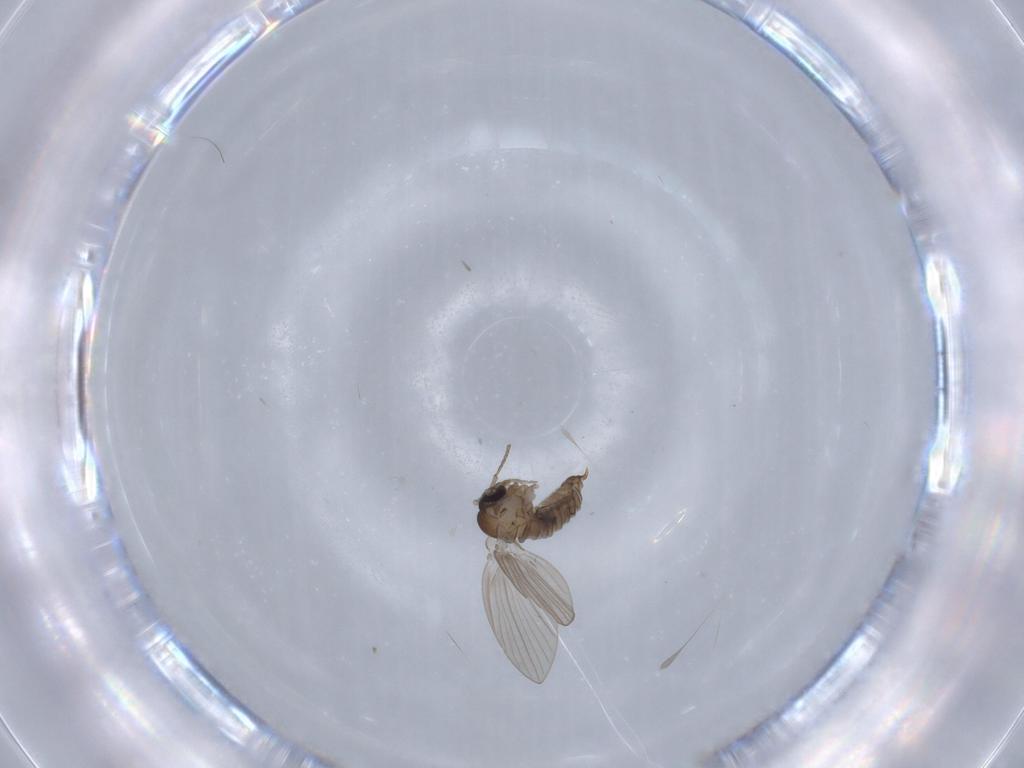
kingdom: Animalia
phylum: Arthropoda
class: Insecta
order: Diptera
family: Cecidomyiidae
